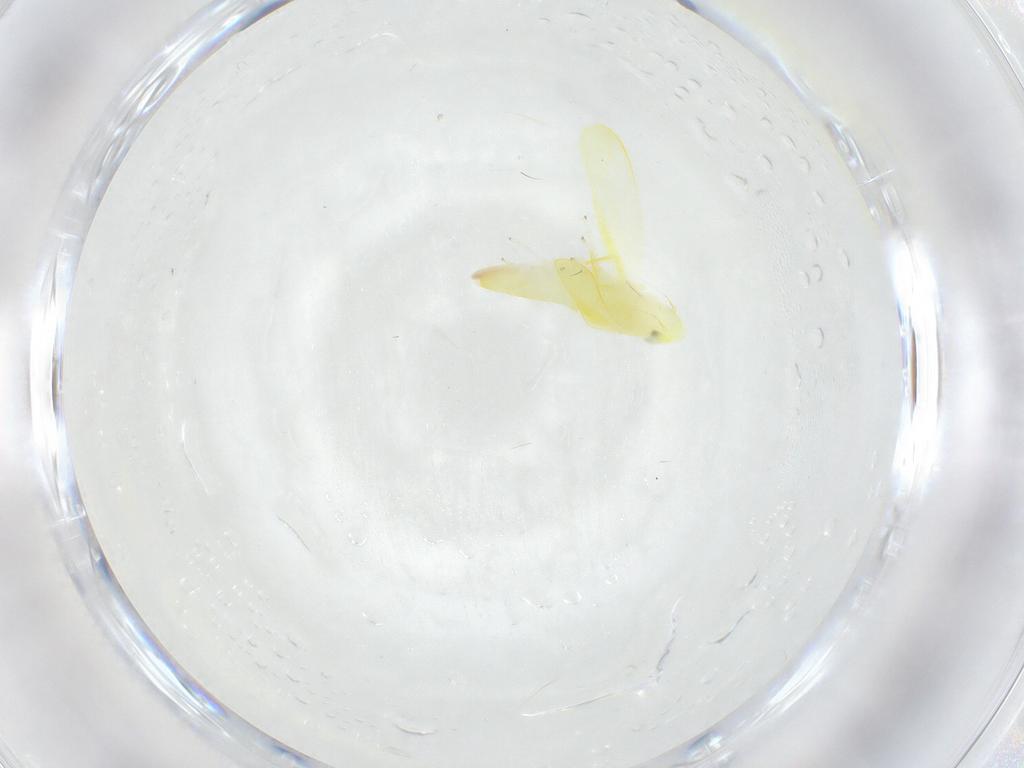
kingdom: Animalia
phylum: Arthropoda
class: Insecta
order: Hemiptera
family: Cicadellidae
